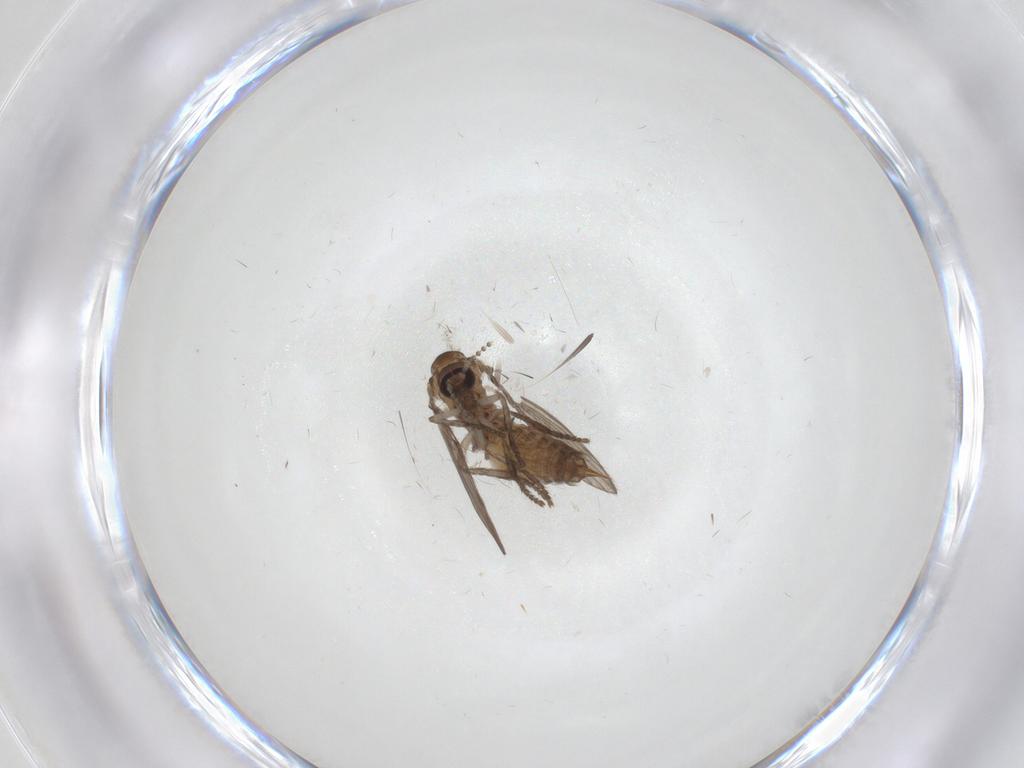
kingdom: Animalia
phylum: Arthropoda
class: Insecta
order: Diptera
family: Psychodidae
